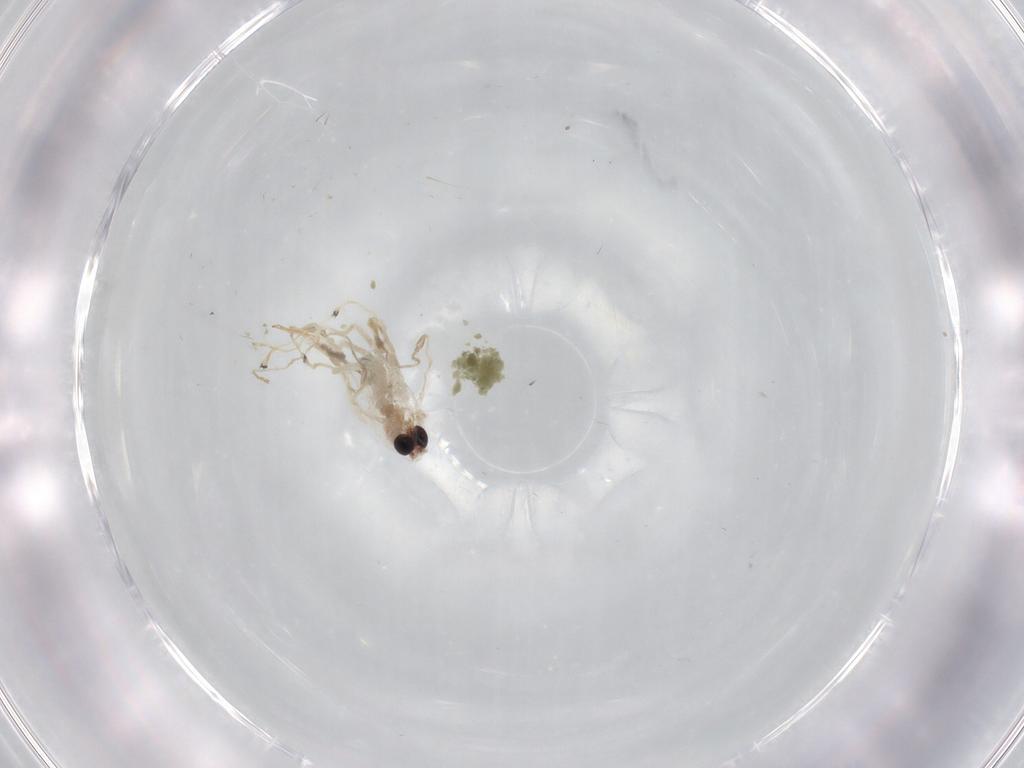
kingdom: Animalia
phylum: Arthropoda
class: Insecta
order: Diptera
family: Chironomidae
